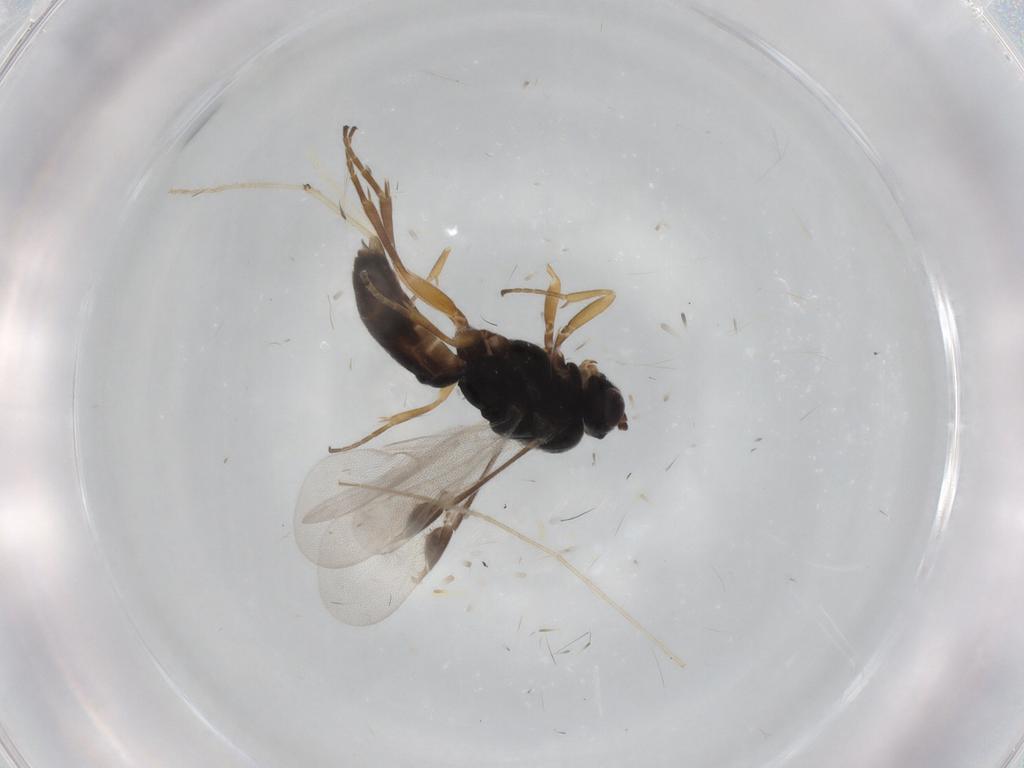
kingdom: Animalia
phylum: Arthropoda
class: Insecta
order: Hymenoptera
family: Braconidae
